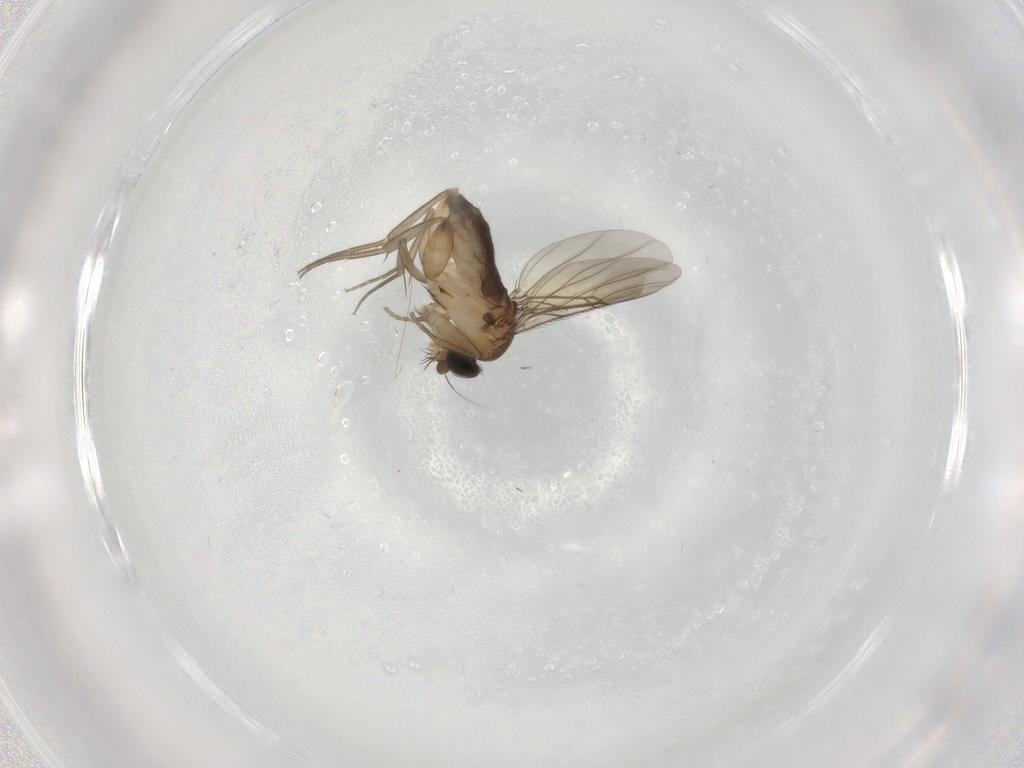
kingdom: Animalia
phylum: Arthropoda
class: Insecta
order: Diptera
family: Phoridae
